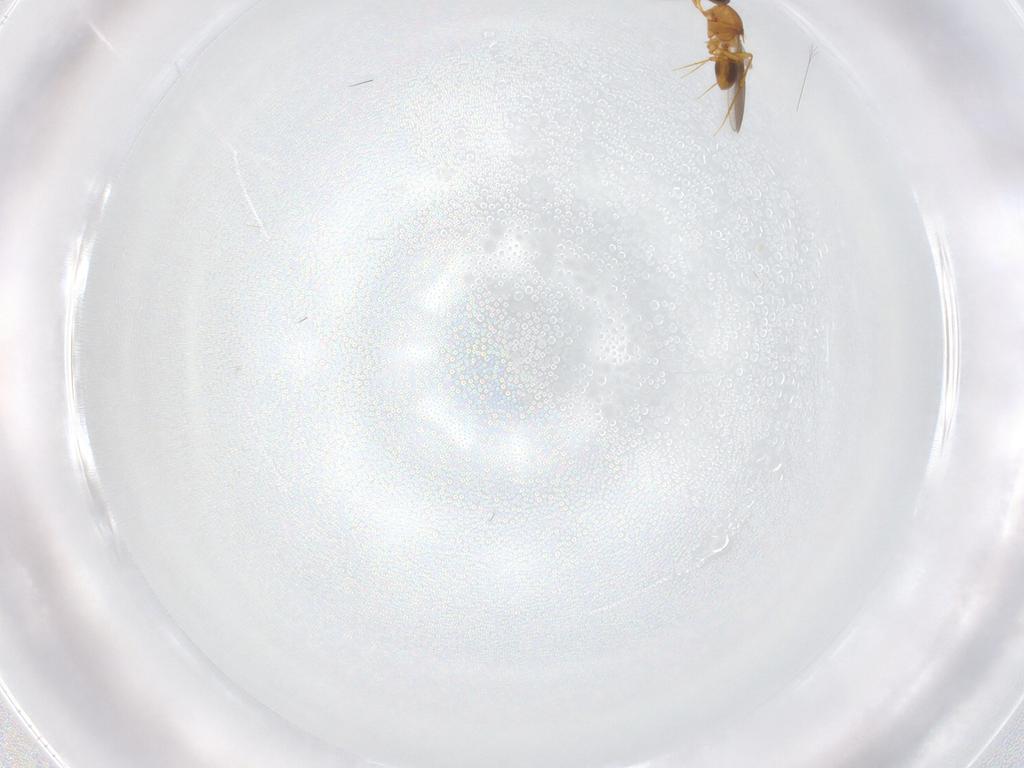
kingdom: Animalia
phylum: Arthropoda
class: Insecta
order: Hymenoptera
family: Platygastridae
